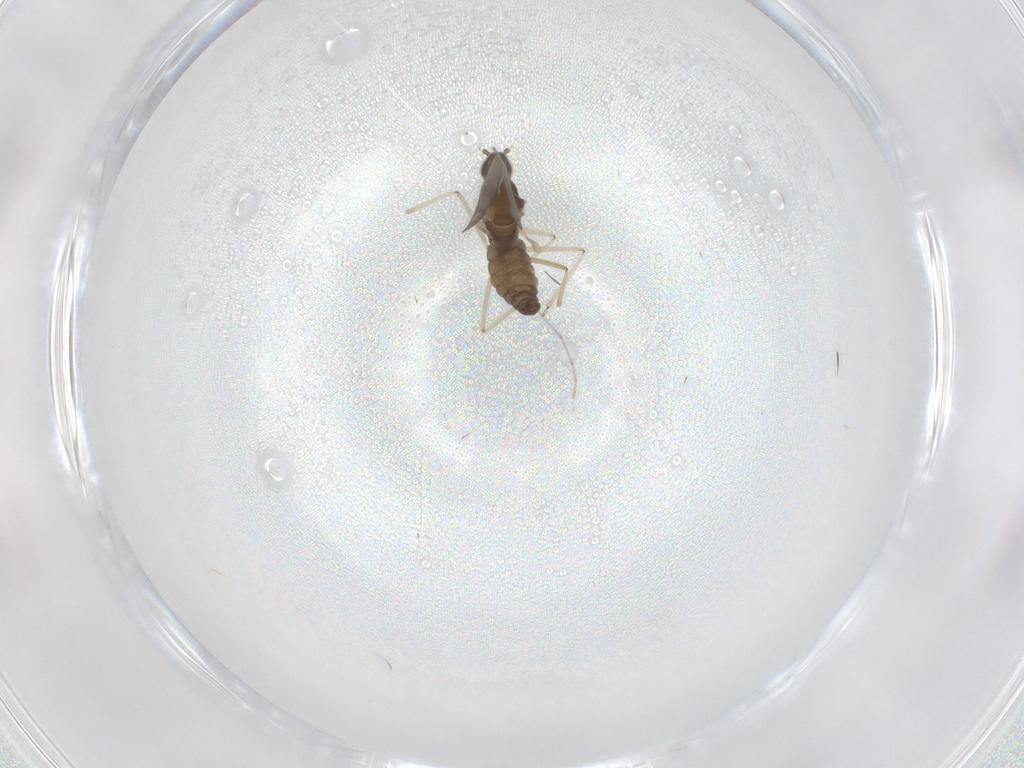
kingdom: Animalia
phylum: Arthropoda
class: Insecta
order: Diptera
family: Cecidomyiidae
